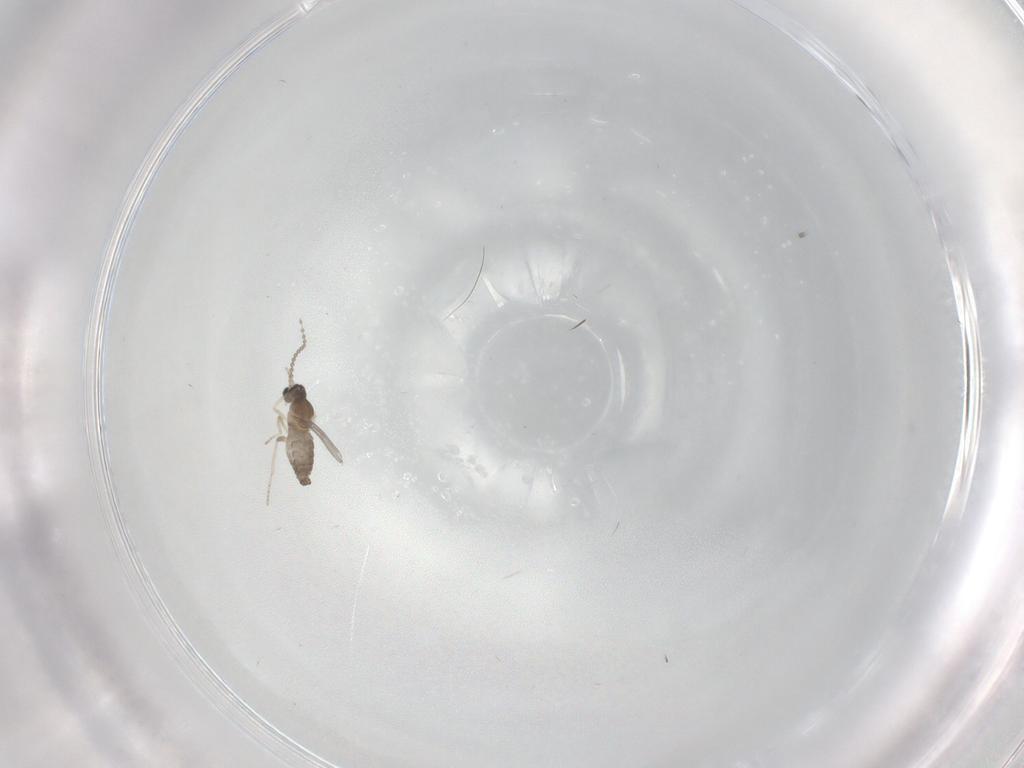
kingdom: Animalia
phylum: Arthropoda
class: Insecta
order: Diptera
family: Cecidomyiidae
